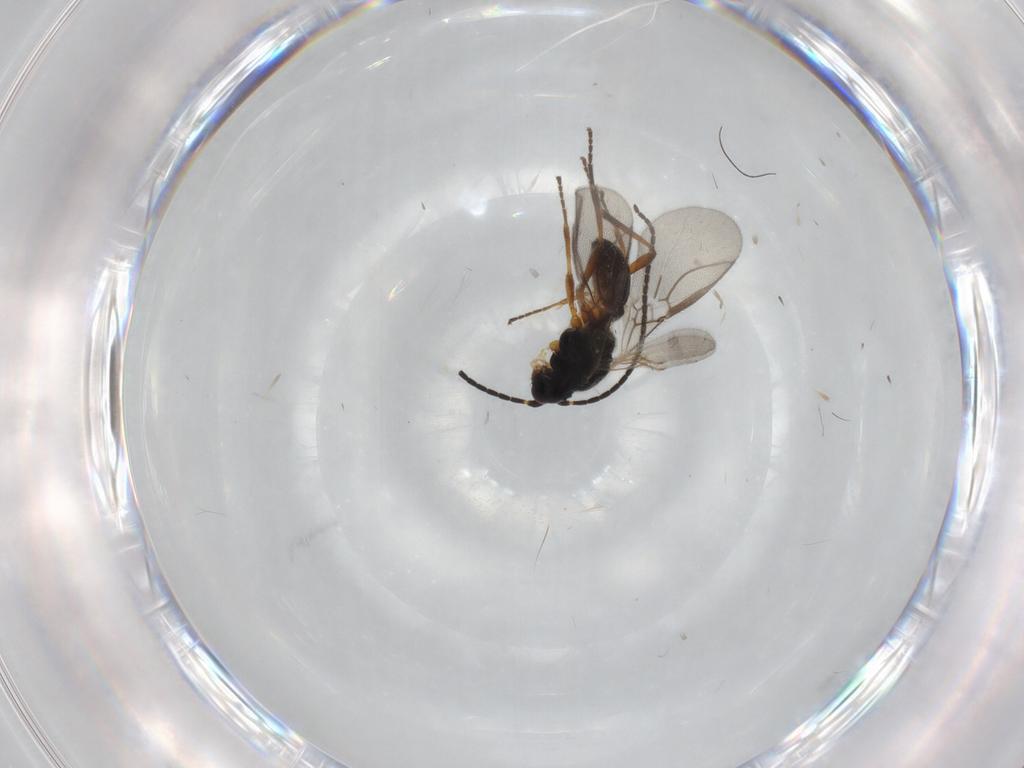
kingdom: Animalia
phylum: Arthropoda
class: Insecta
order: Hymenoptera
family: Braconidae
